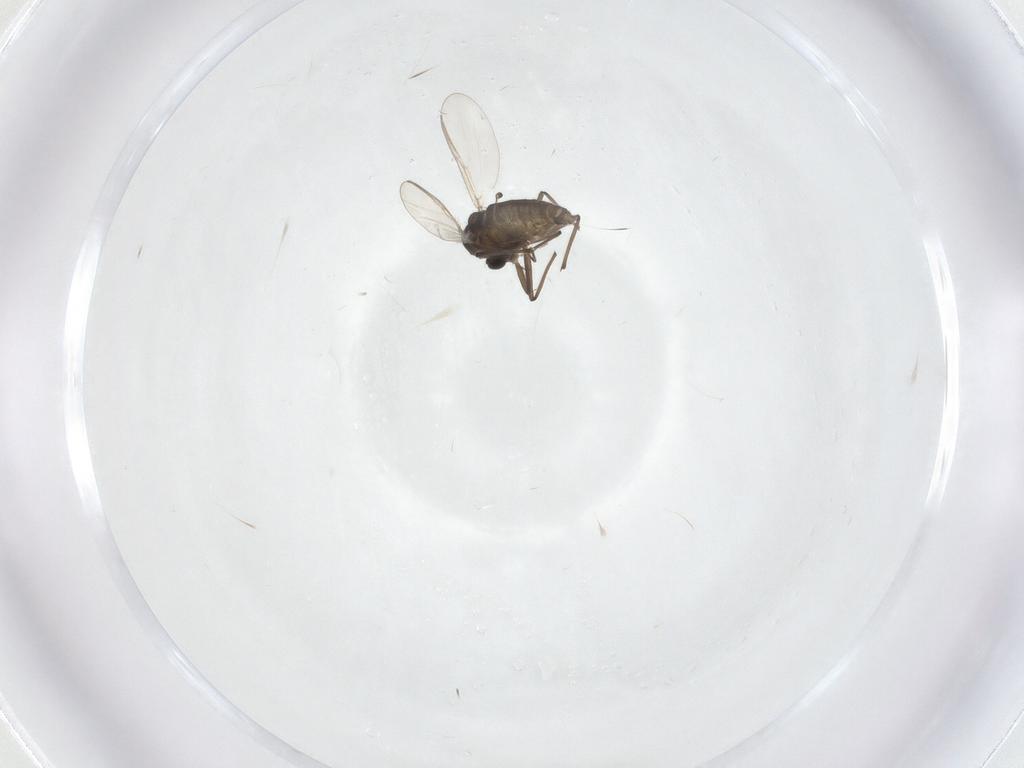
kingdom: Animalia
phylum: Arthropoda
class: Insecta
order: Diptera
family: Chironomidae
